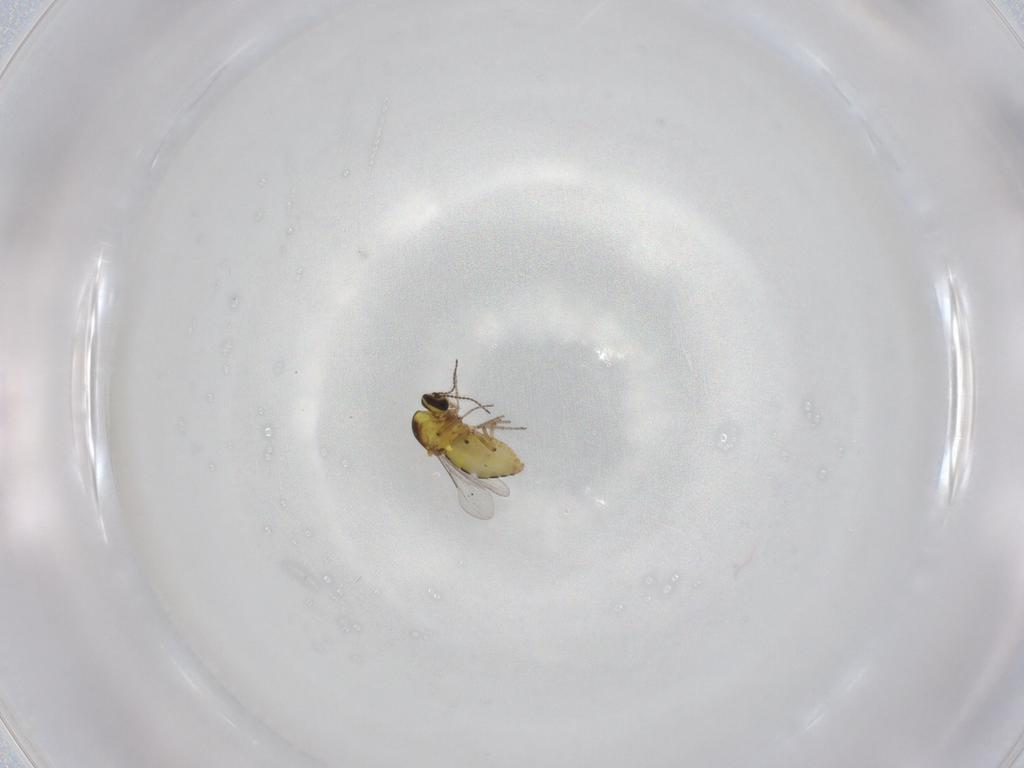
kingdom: Animalia
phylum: Arthropoda
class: Insecta
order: Diptera
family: Ceratopogonidae
